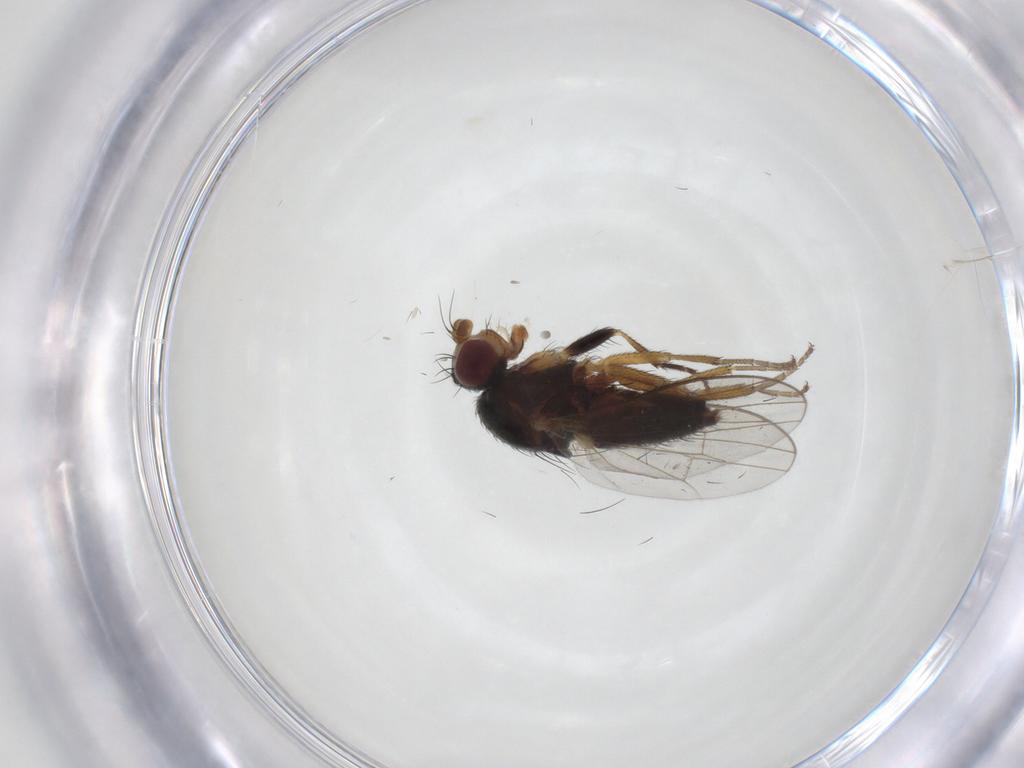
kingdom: Animalia
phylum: Arthropoda
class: Insecta
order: Diptera
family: Heleomyzidae
